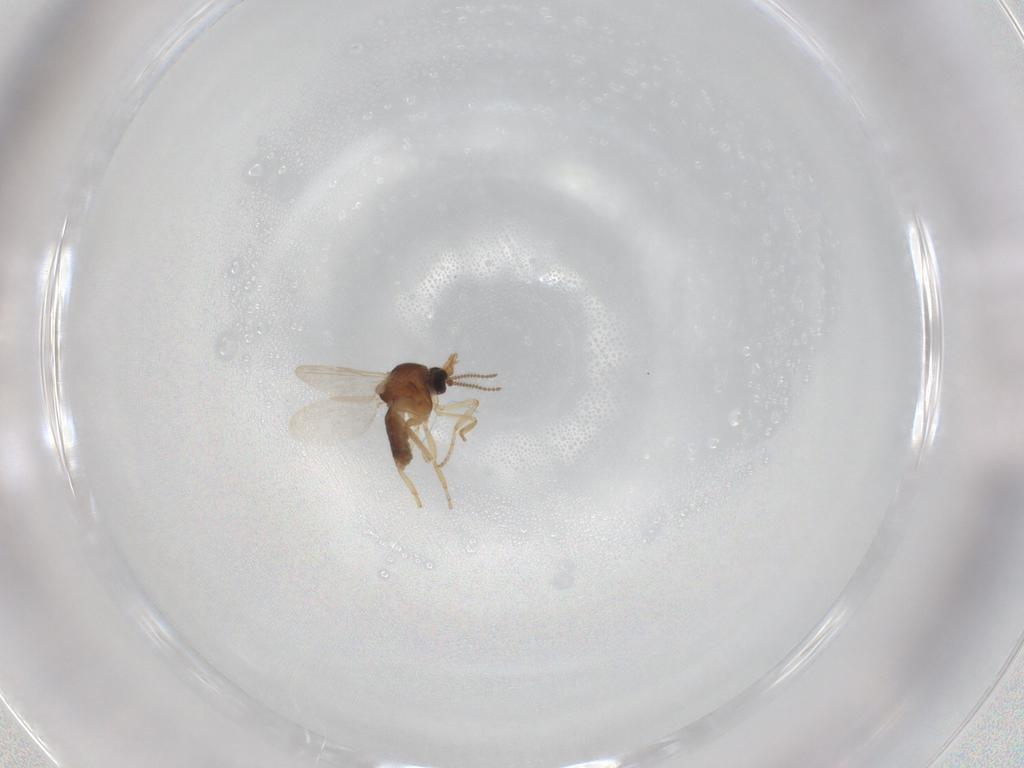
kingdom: Animalia
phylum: Arthropoda
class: Insecta
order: Diptera
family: Ceratopogonidae
